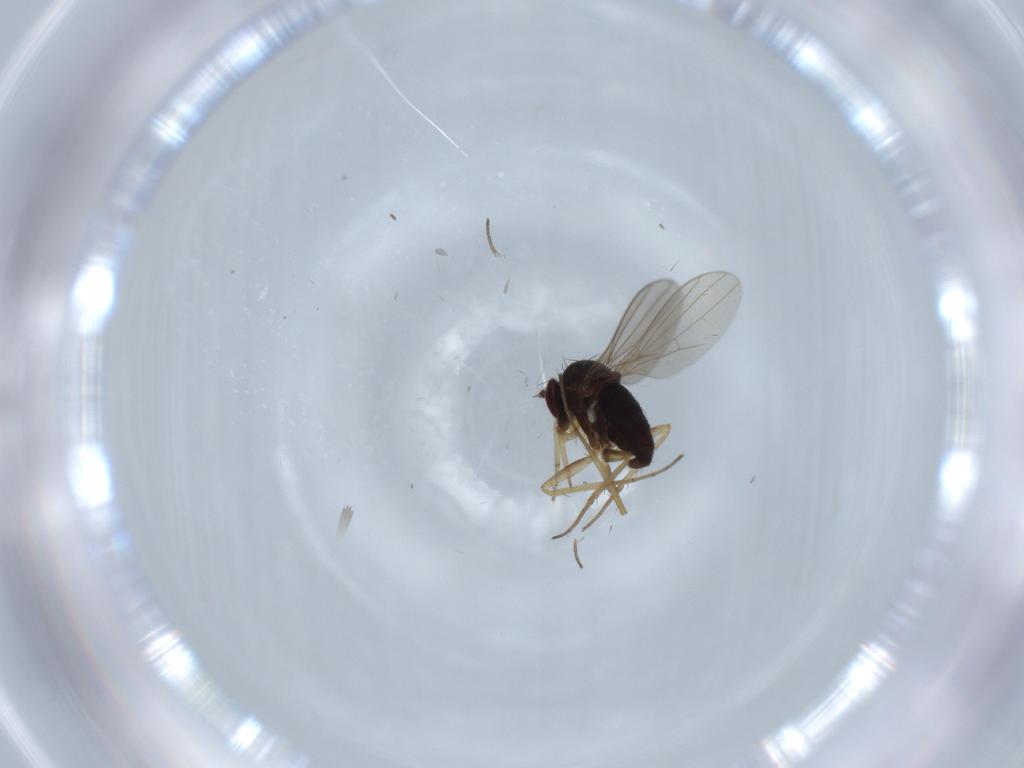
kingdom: Animalia
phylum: Arthropoda
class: Insecta
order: Diptera
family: Dolichopodidae
